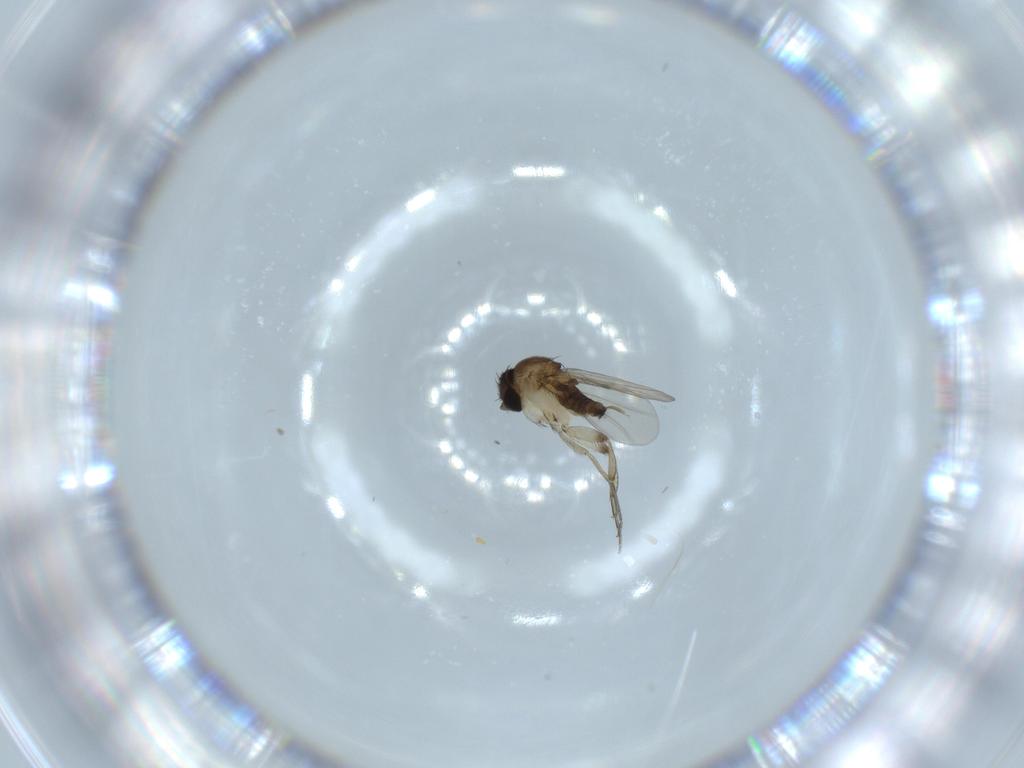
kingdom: Animalia
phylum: Arthropoda
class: Insecta
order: Diptera
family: Phoridae
